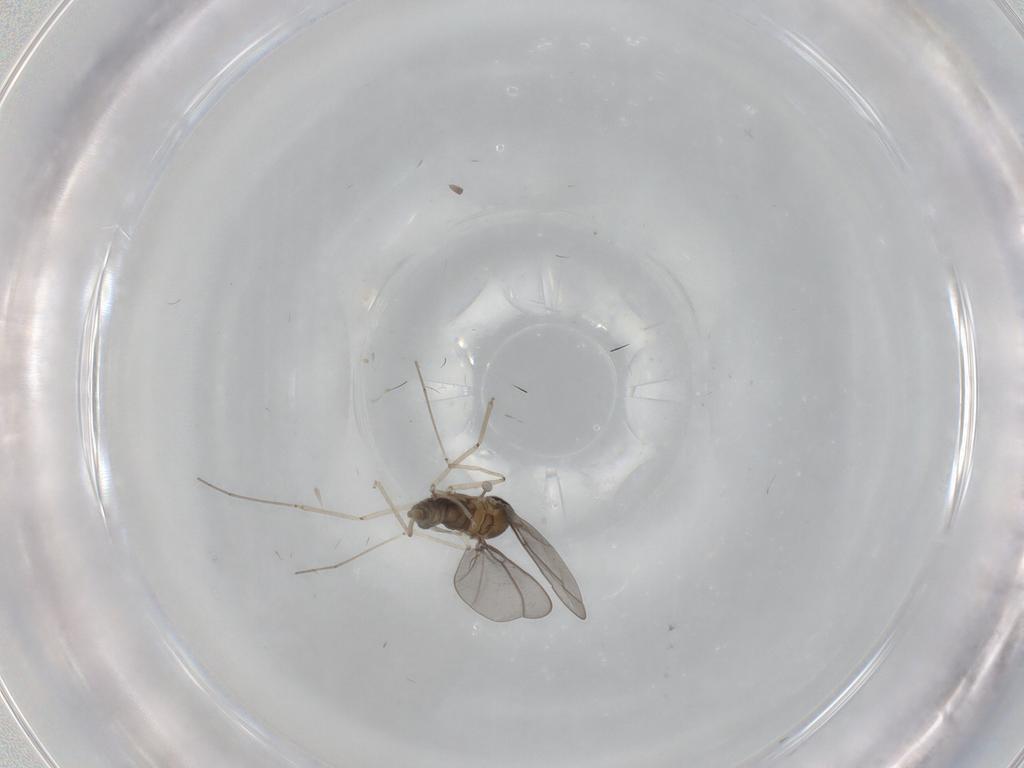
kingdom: Animalia
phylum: Arthropoda
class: Insecta
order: Diptera
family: Cecidomyiidae
